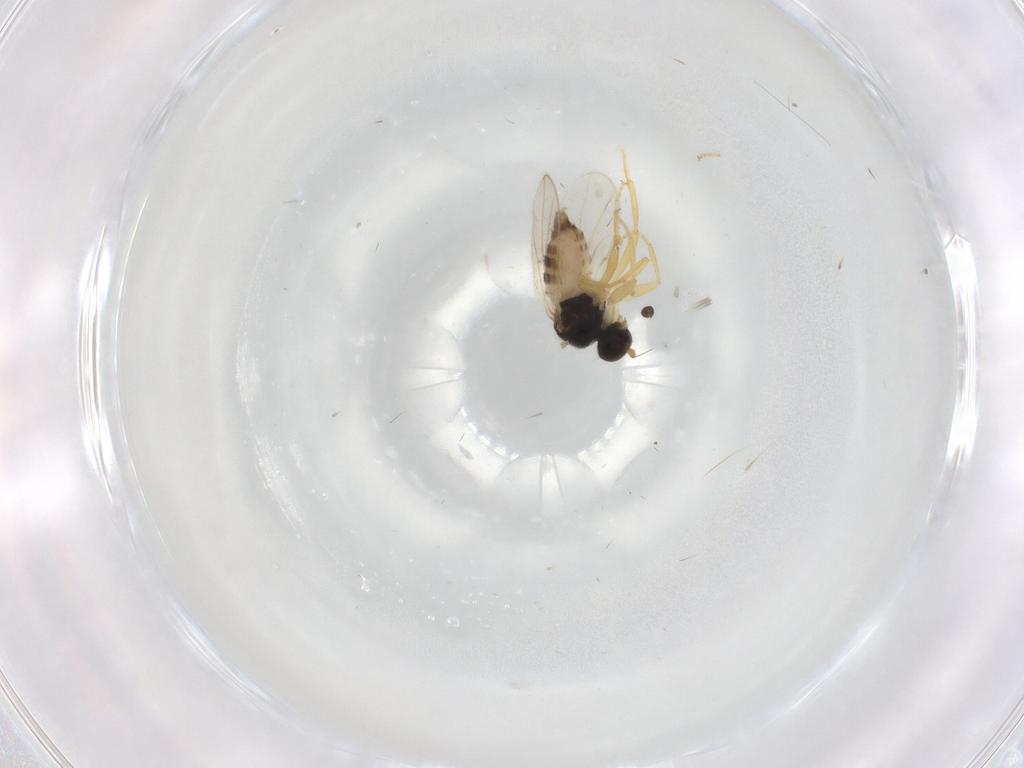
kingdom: Animalia
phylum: Arthropoda
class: Insecta
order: Diptera
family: Hybotidae
